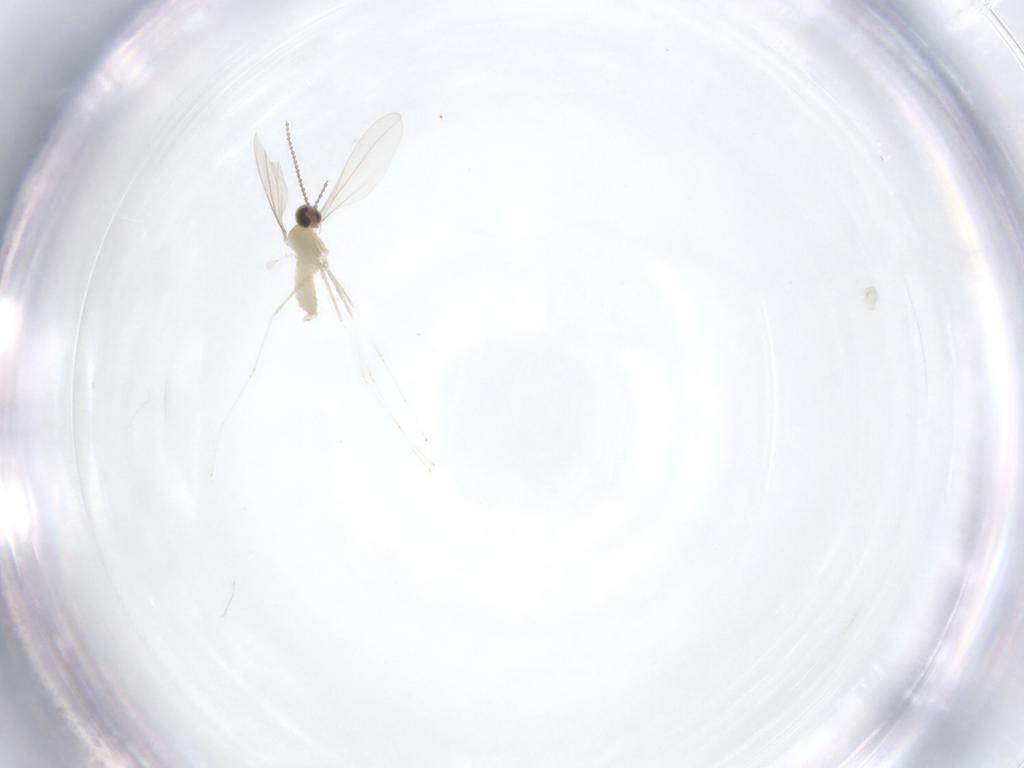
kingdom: Animalia
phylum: Arthropoda
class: Insecta
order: Diptera
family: Cecidomyiidae
